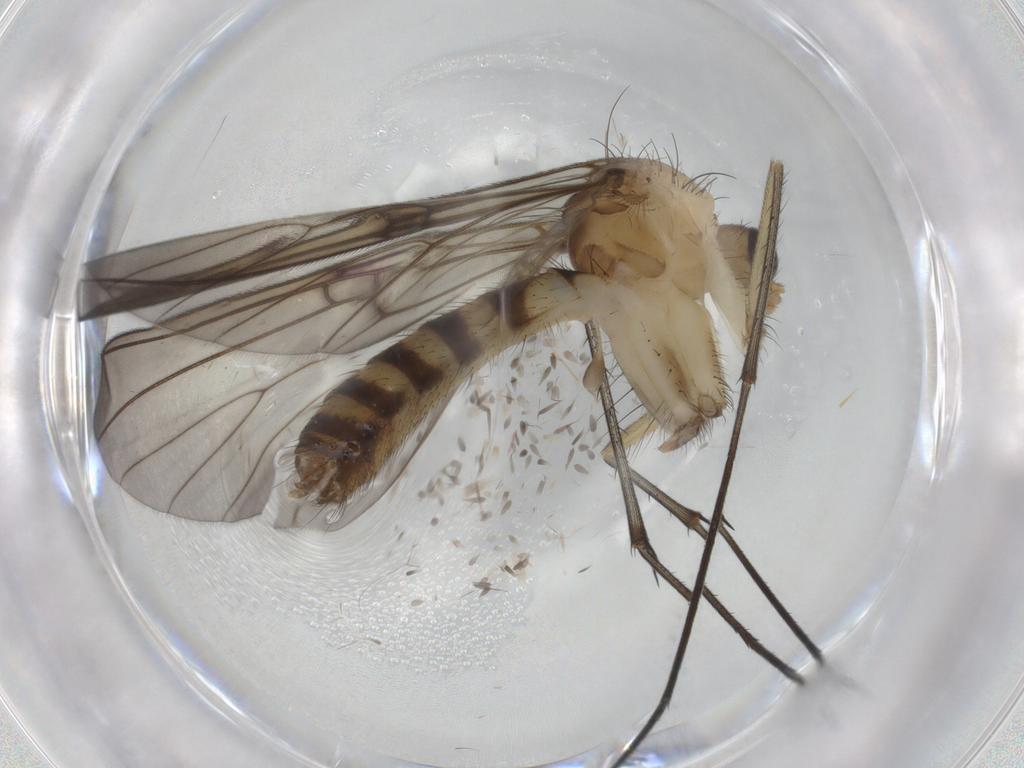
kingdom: Animalia
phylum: Arthropoda
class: Insecta
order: Diptera
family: Mycetophilidae
